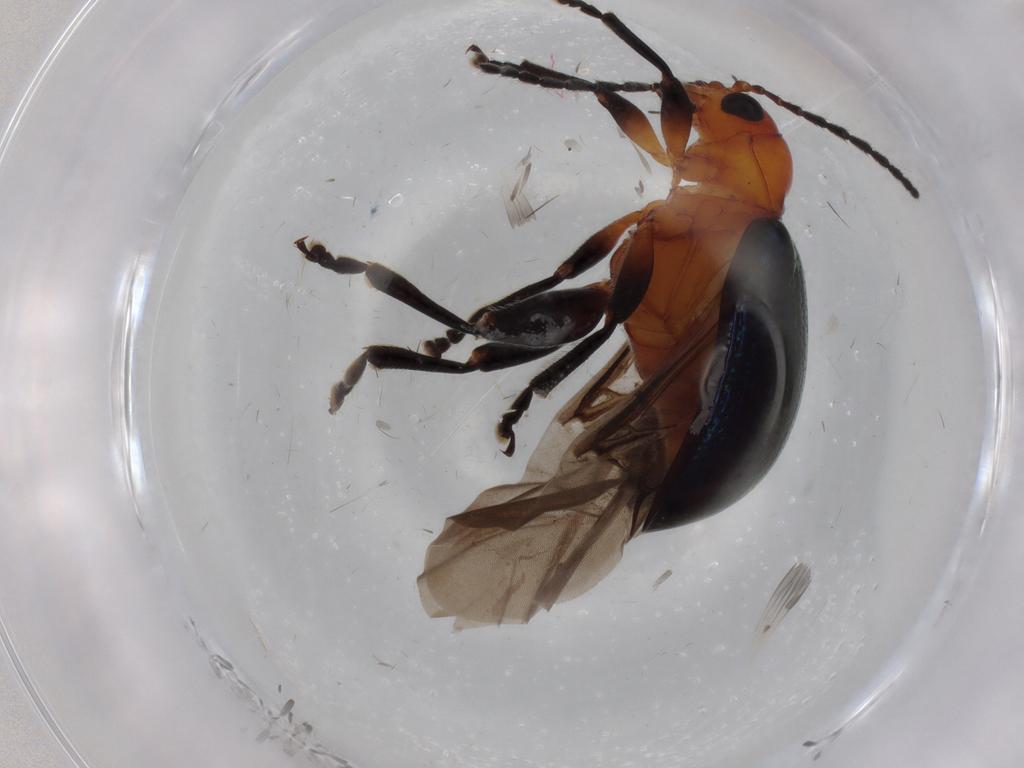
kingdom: Animalia
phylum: Arthropoda
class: Insecta
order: Coleoptera
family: Chrysomelidae
